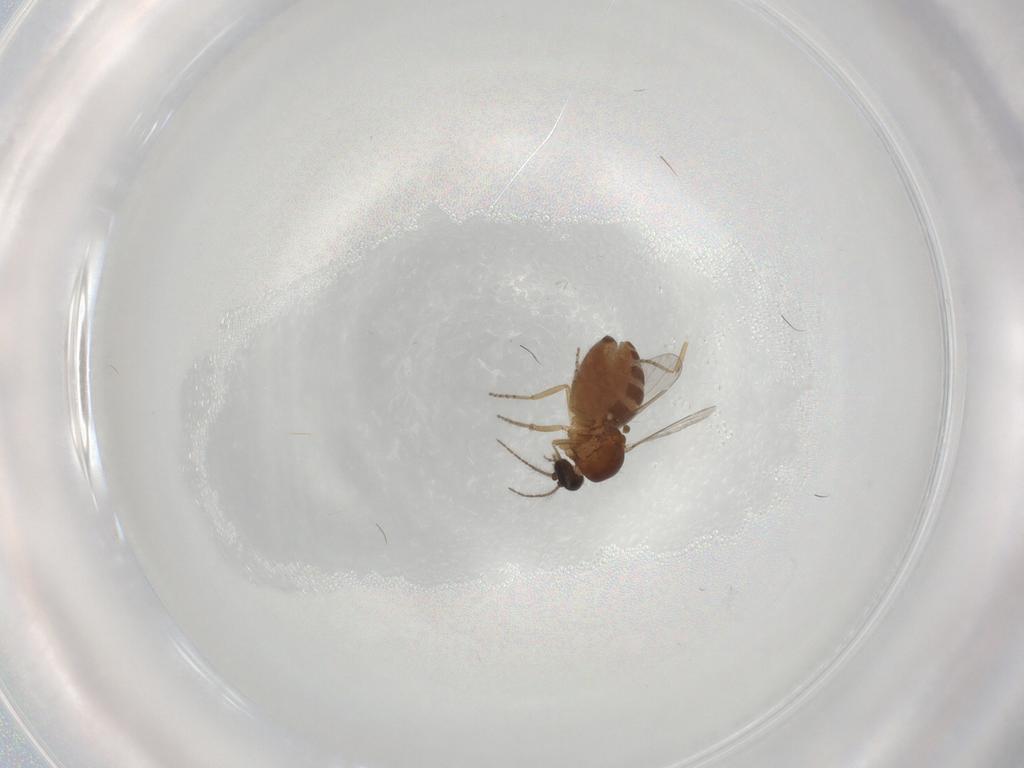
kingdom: Animalia
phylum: Arthropoda
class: Insecta
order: Diptera
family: Ceratopogonidae
